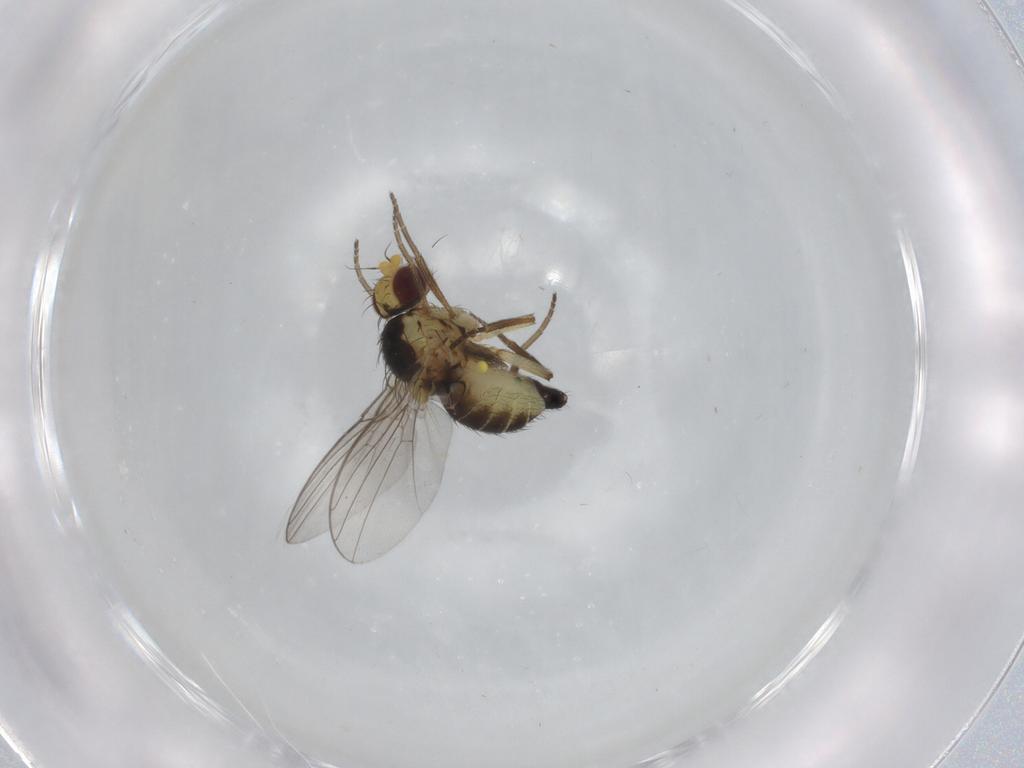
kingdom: Animalia
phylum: Arthropoda
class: Insecta
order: Diptera
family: Agromyzidae
